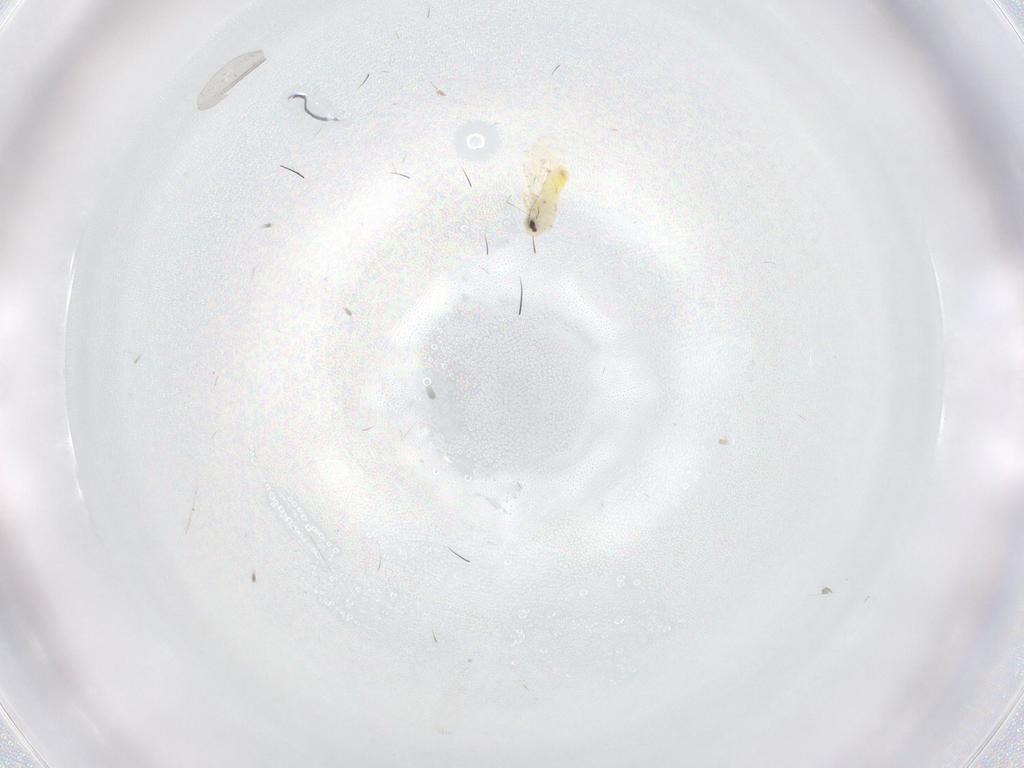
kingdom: Animalia
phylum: Arthropoda
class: Insecta
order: Hemiptera
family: Aleyrodidae
